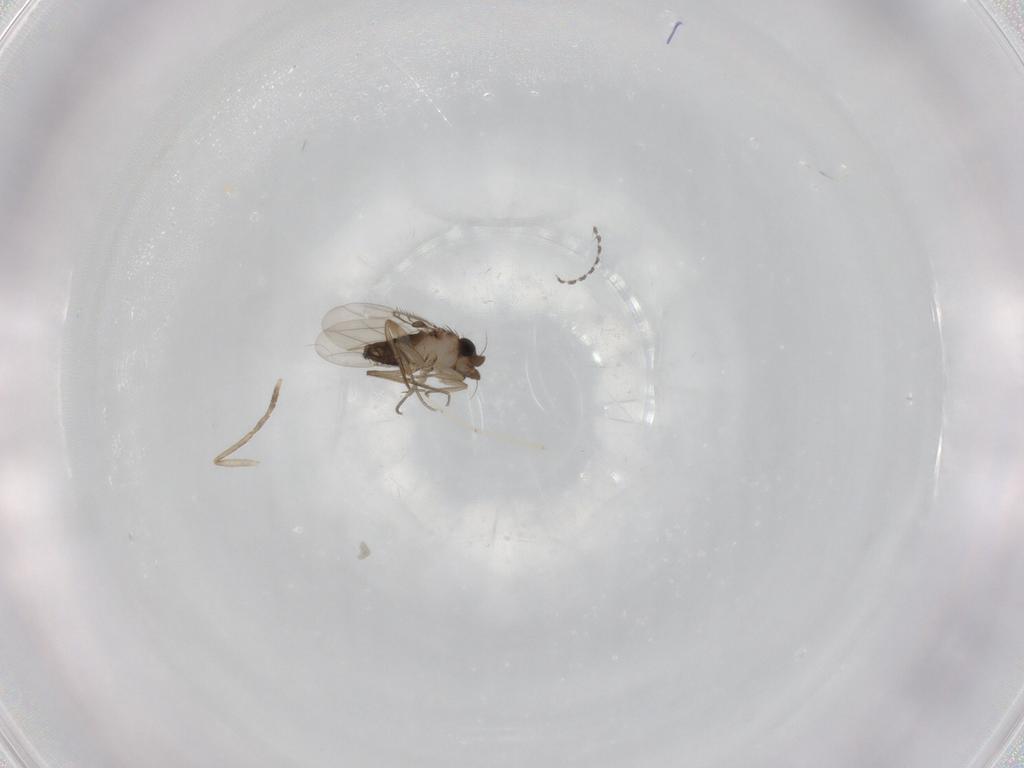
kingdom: Animalia
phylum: Arthropoda
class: Insecta
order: Diptera
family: Phoridae
